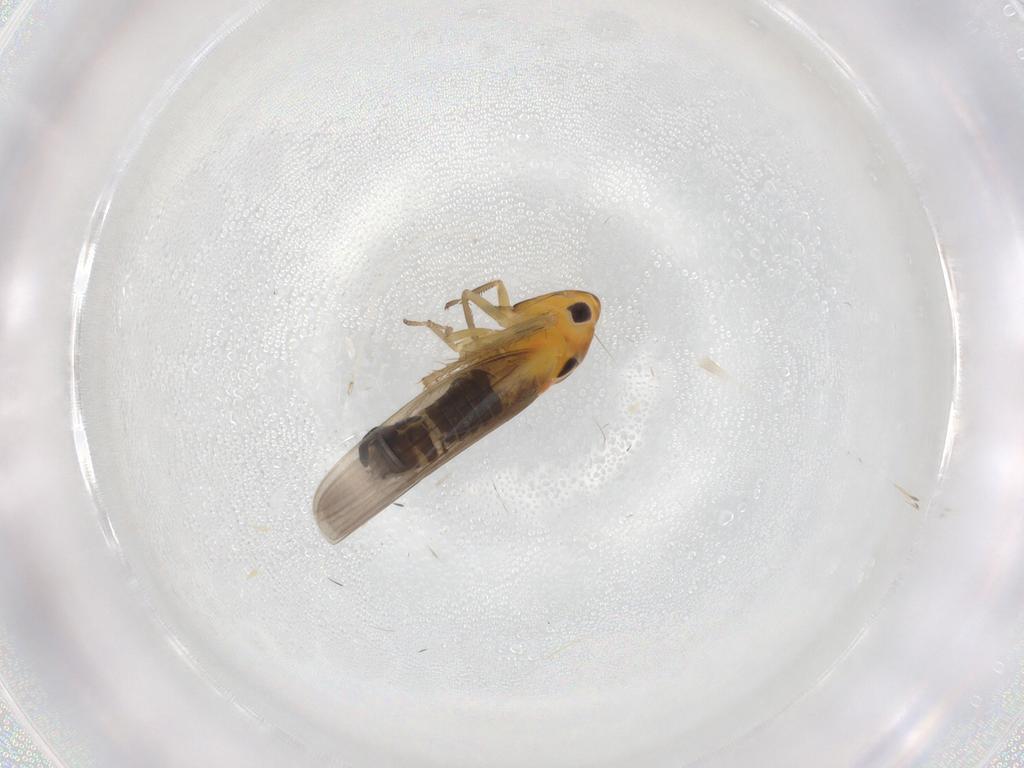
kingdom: Animalia
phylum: Arthropoda
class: Insecta
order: Hemiptera
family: Cicadellidae
